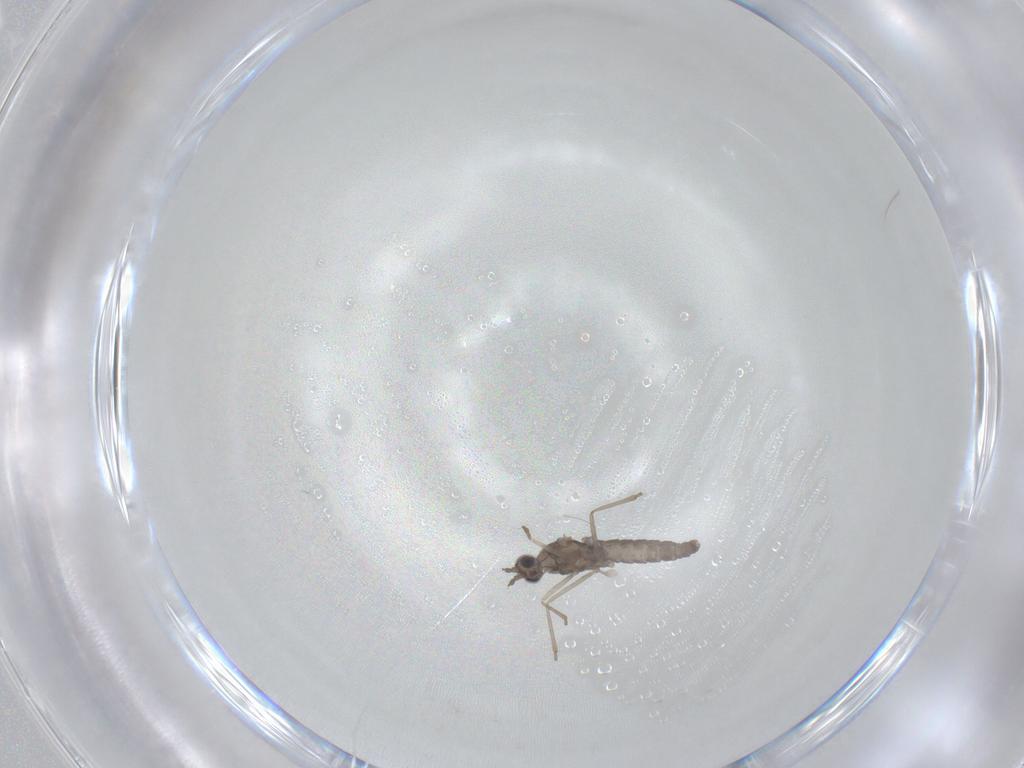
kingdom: Animalia
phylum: Arthropoda
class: Insecta
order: Diptera
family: Cecidomyiidae
